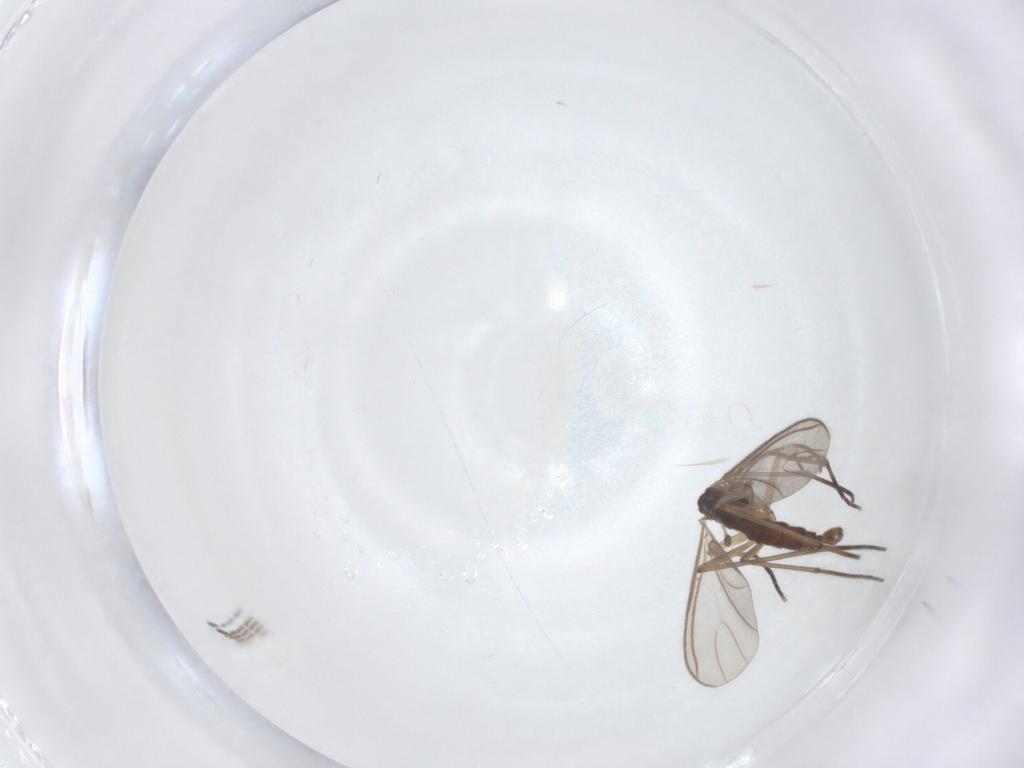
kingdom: Animalia
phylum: Arthropoda
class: Insecta
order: Diptera
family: Sciaridae
